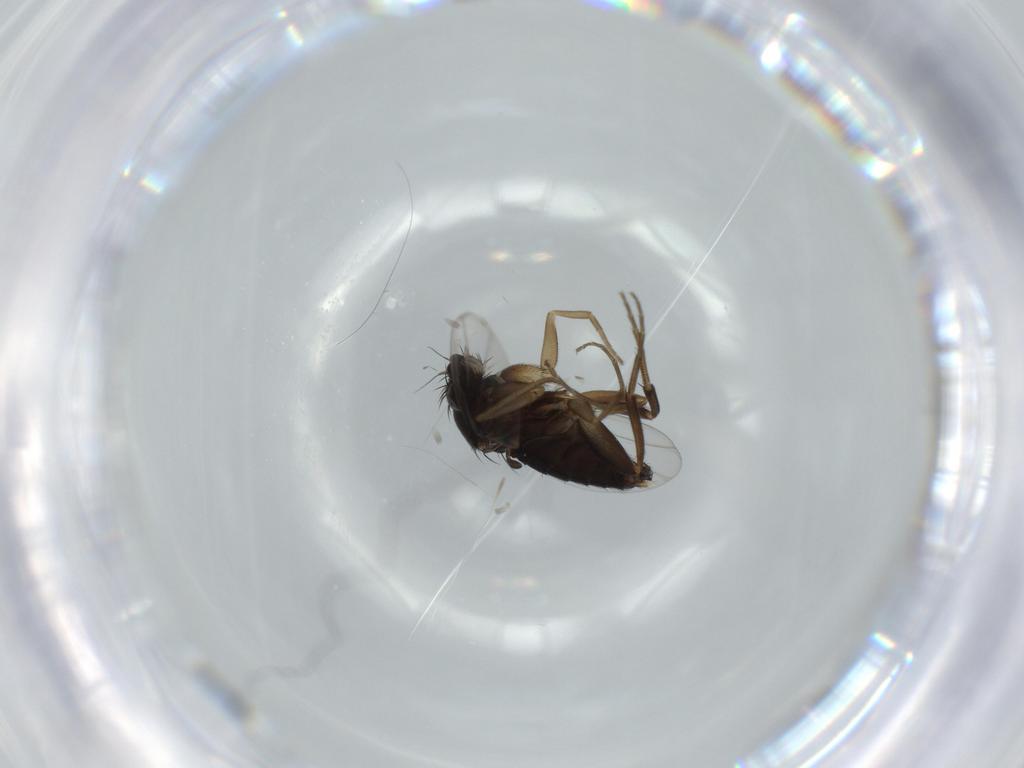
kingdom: Animalia
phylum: Arthropoda
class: Insecta
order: Diptera
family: Phoridae
